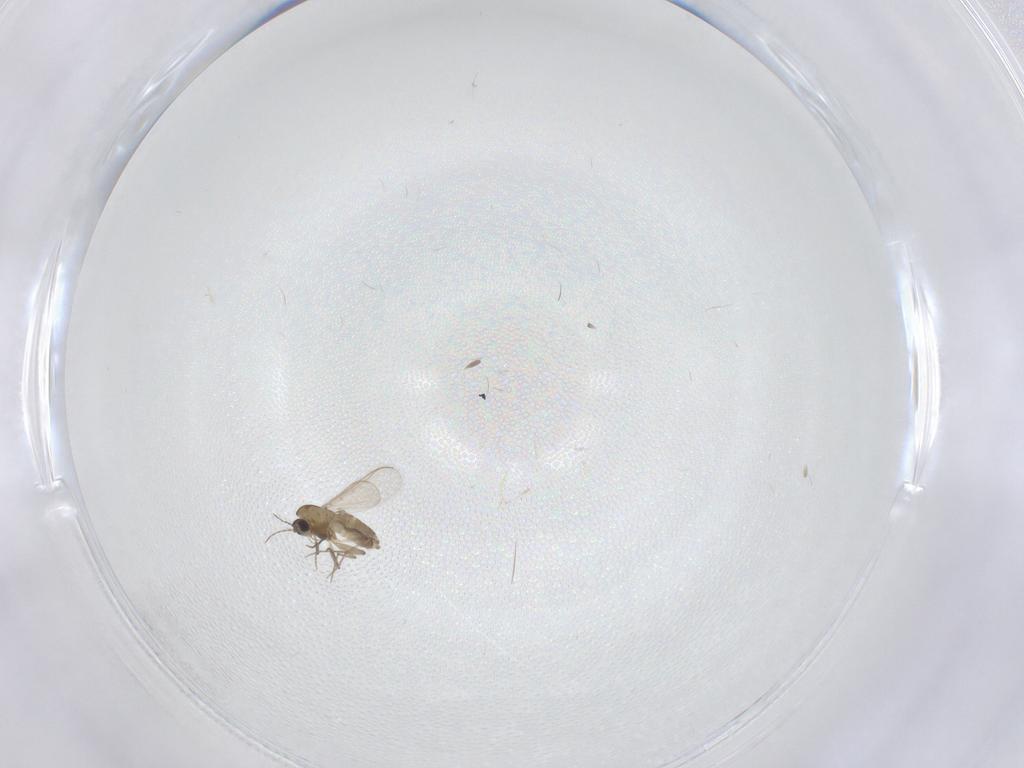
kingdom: Animalia
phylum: Arthropoda
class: Insecta
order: Diptera
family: Chironomidae
